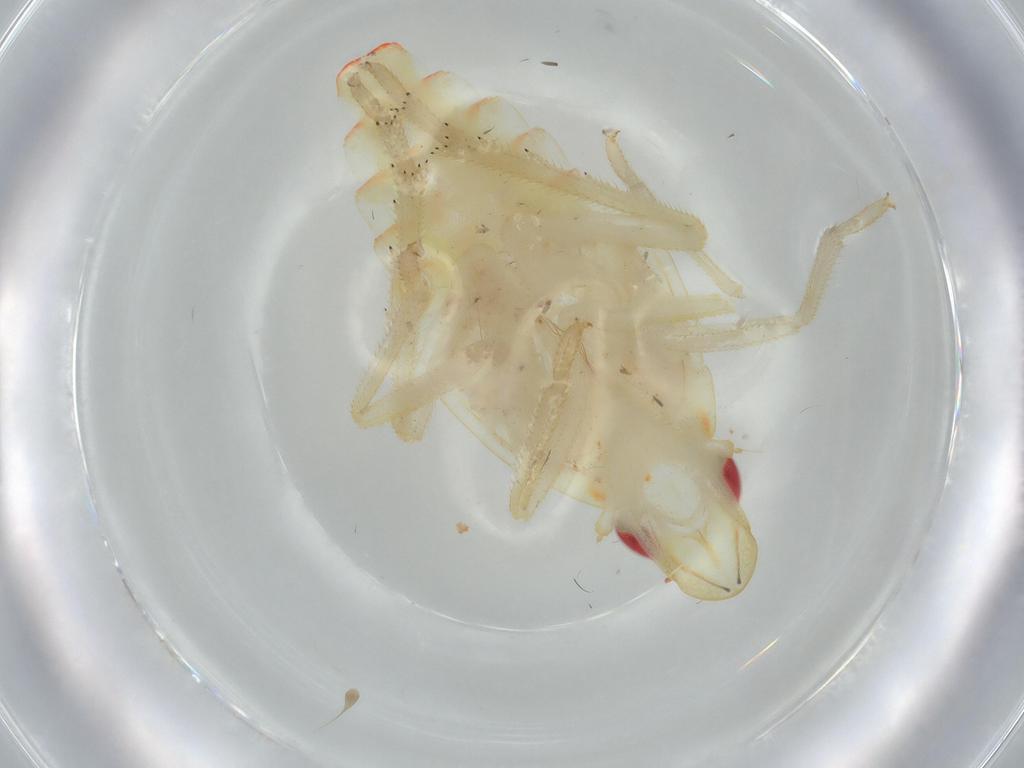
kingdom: Animalia
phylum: Arthropoda
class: Insecta
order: Hemiptera
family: Tropiduchidae
